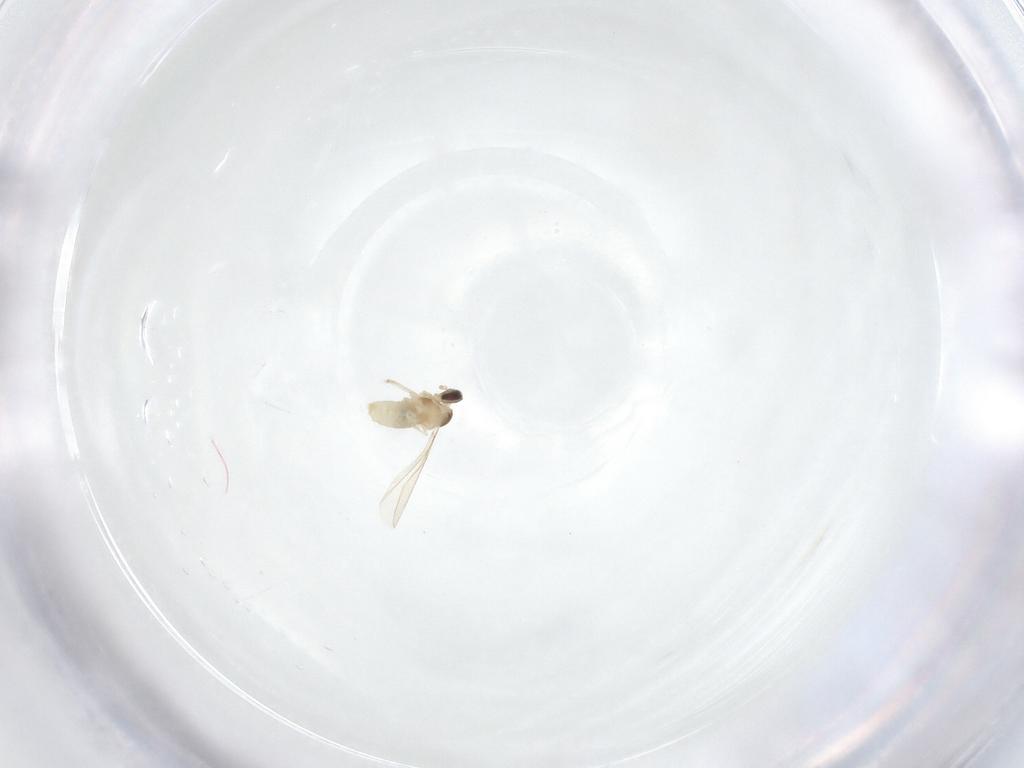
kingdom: Animalia
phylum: Arthropoda
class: Insecta
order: Diptera
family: Cecidomyiidae
